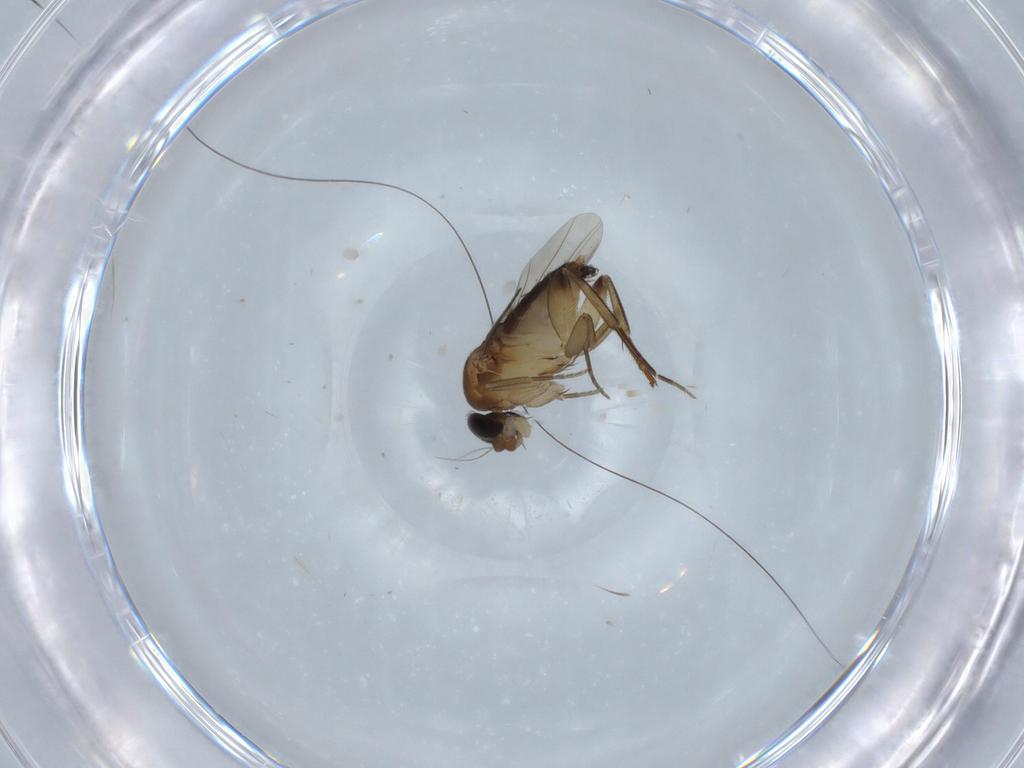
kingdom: Animalia
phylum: Arthropoda
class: Insecta
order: Diptera
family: Phoridae
